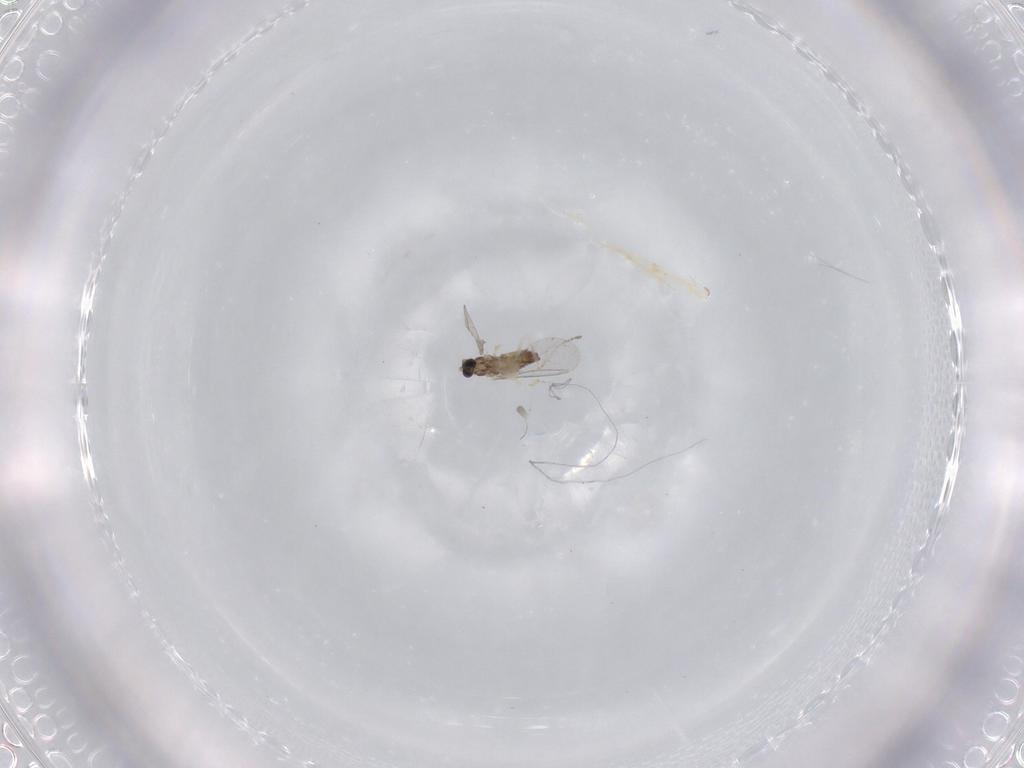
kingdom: Animalia
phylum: Arthropoda
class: Insecta
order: Diptera
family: Cecidomyiidae
